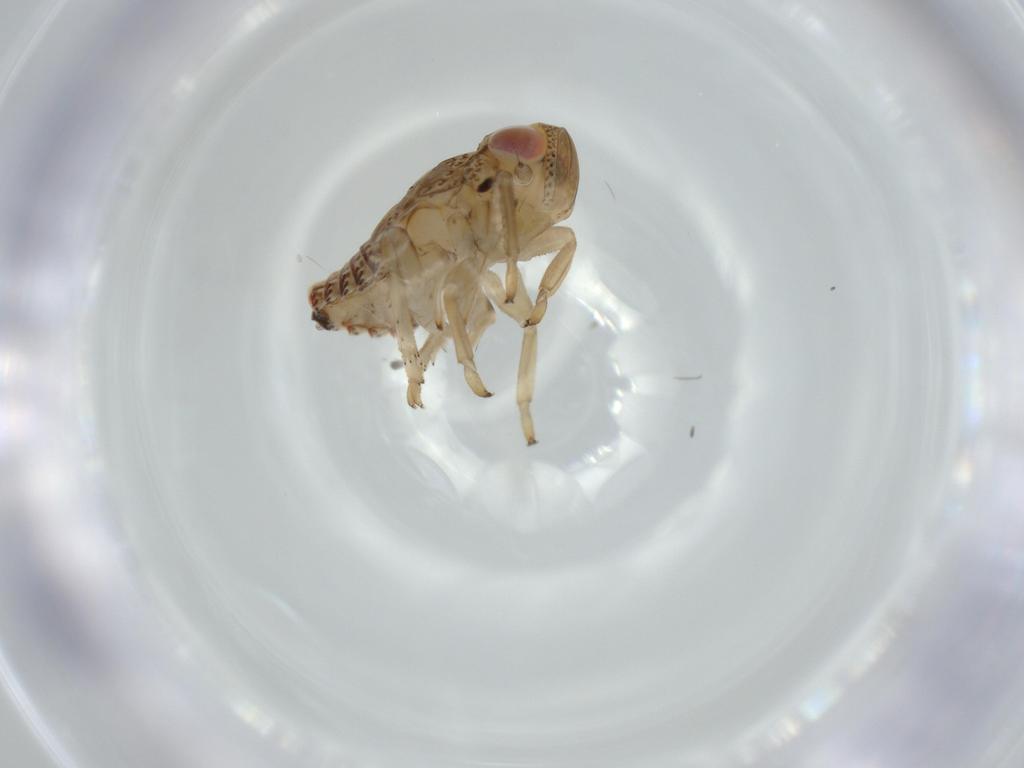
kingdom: Animalia
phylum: Arthropoda
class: Insecta
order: Hemiptera
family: Issidae
